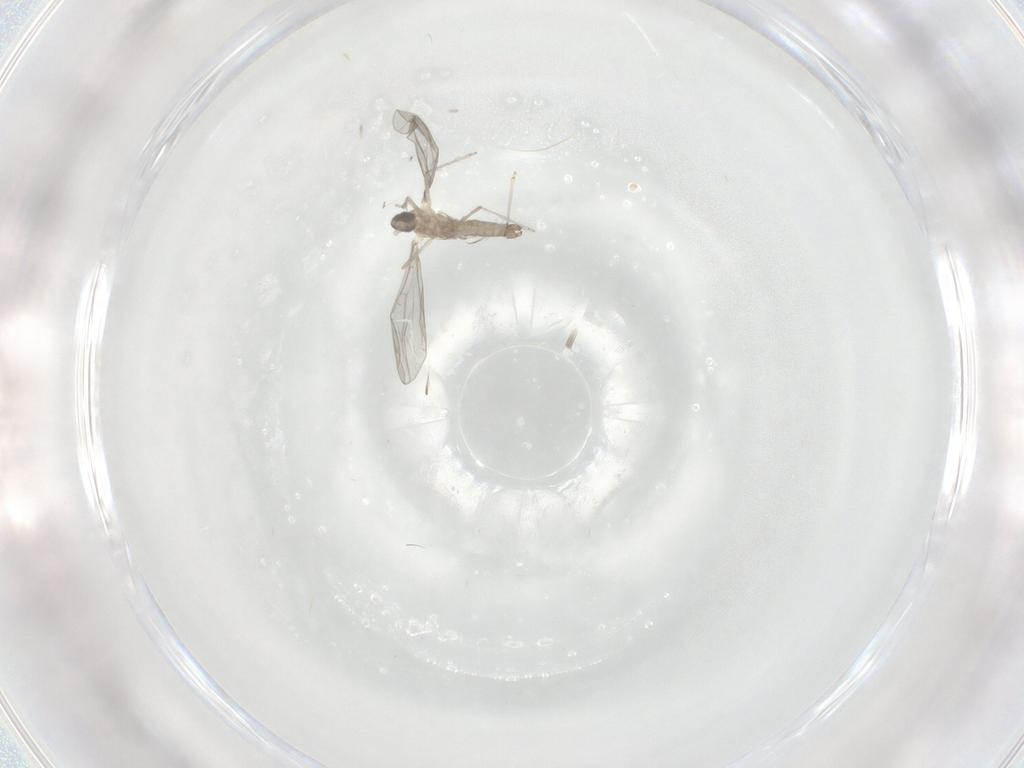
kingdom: Animalia
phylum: Arthropoda
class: Insecta
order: Diptera
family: Cecidomyiidae
